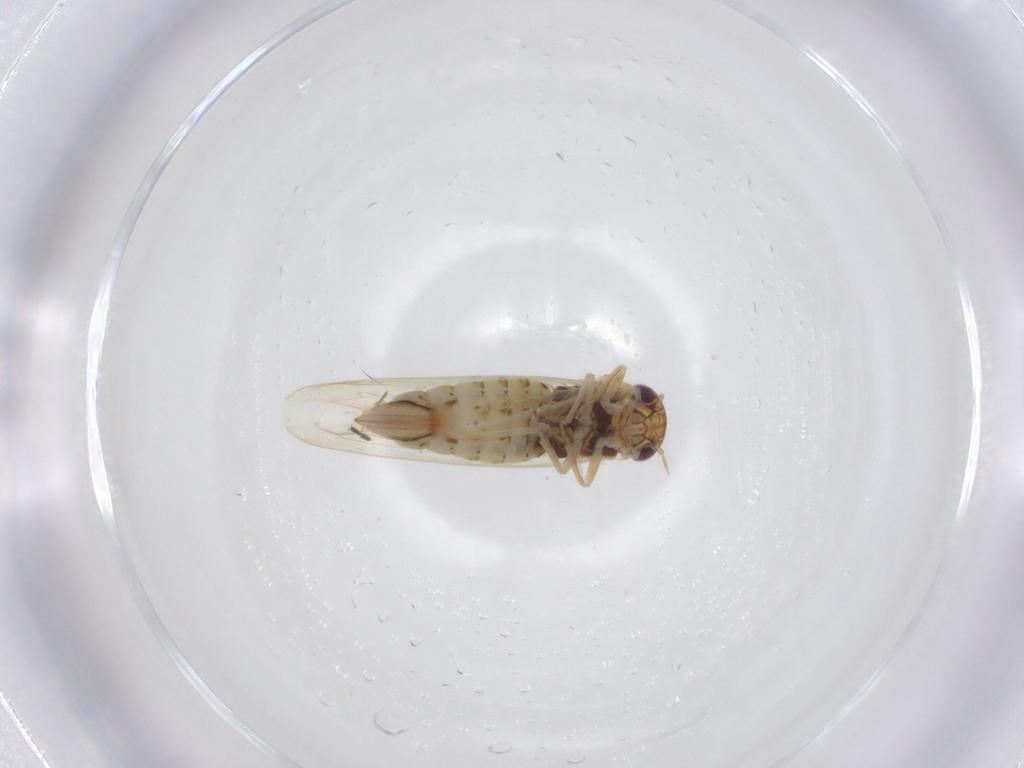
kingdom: Animalia
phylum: Arthropoda
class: Insecta
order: Hemiptera
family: Cicadellidae
